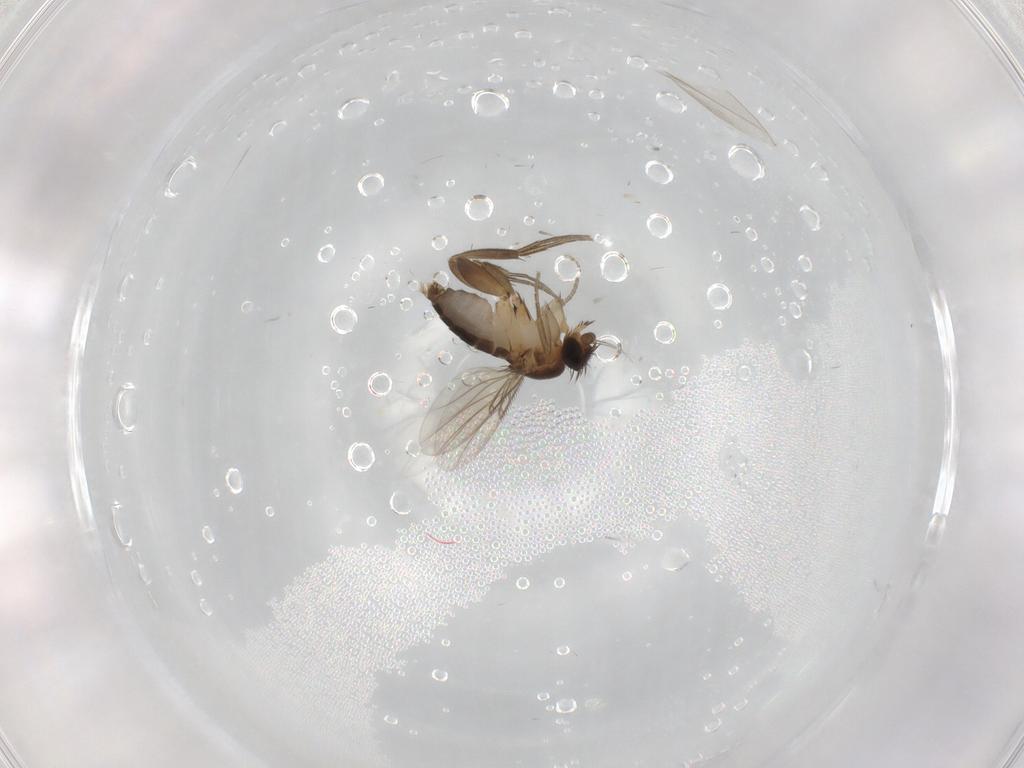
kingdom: Animalia
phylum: Arthropoda
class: Insecta
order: Diptera
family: Phoridae
